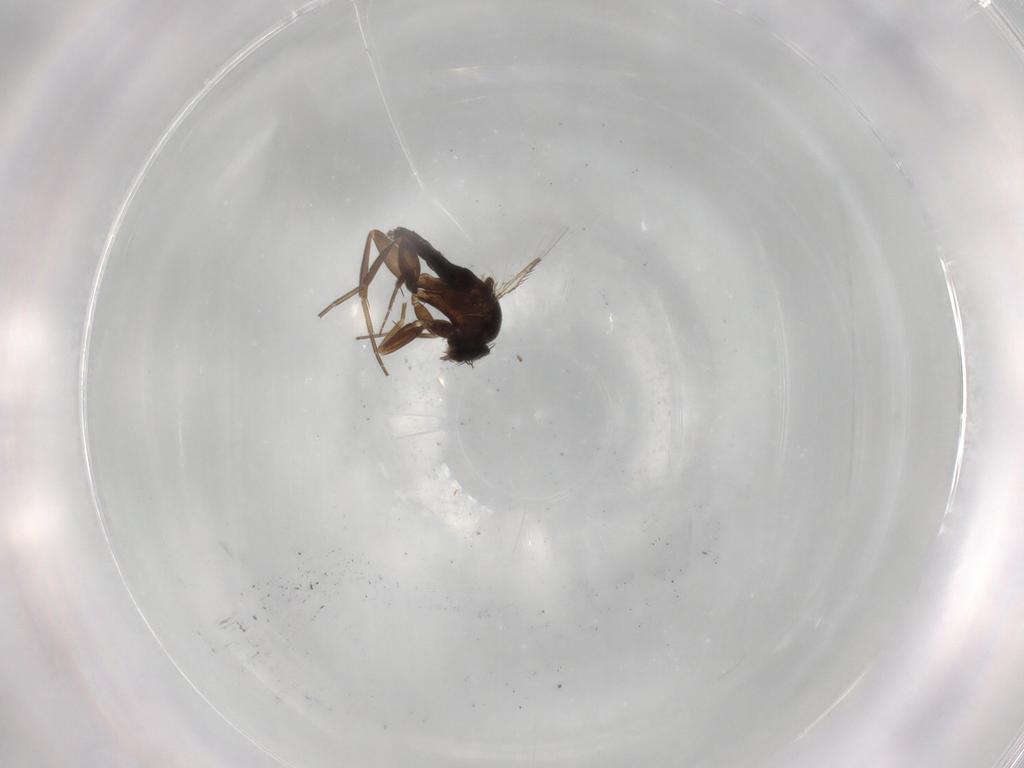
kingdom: Animalia
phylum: Arthropoda
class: Insecta
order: Diptera
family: Phoridae
